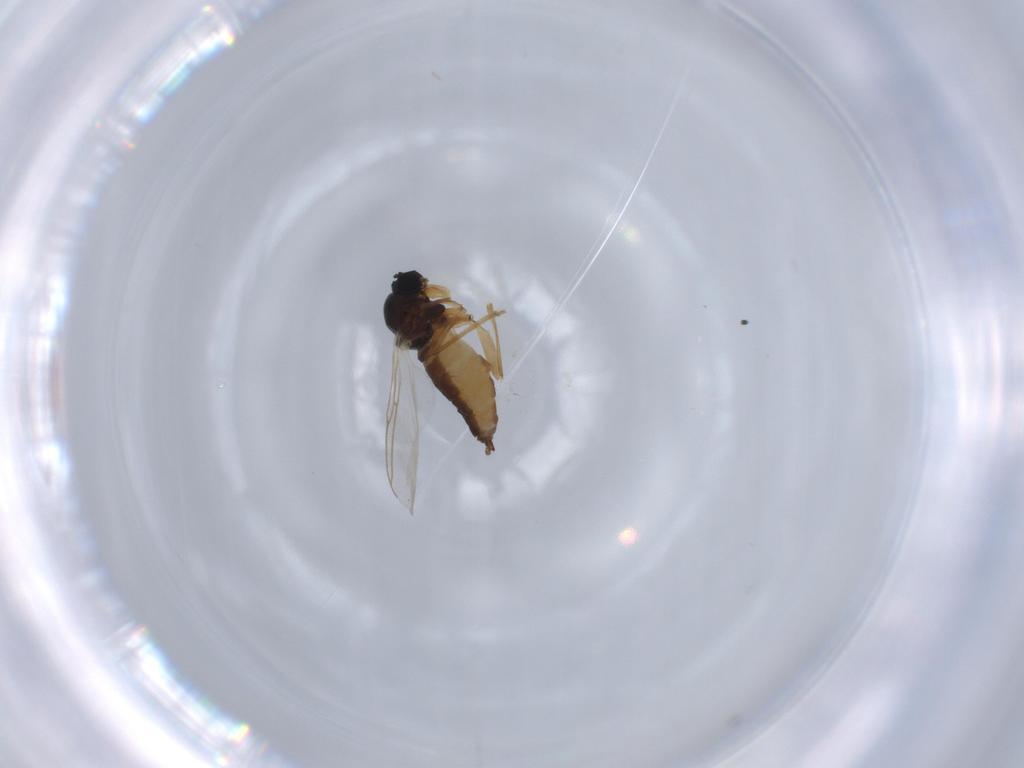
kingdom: Animalia
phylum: Arthropoda
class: Insecta
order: Diptera
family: Sciaridae
